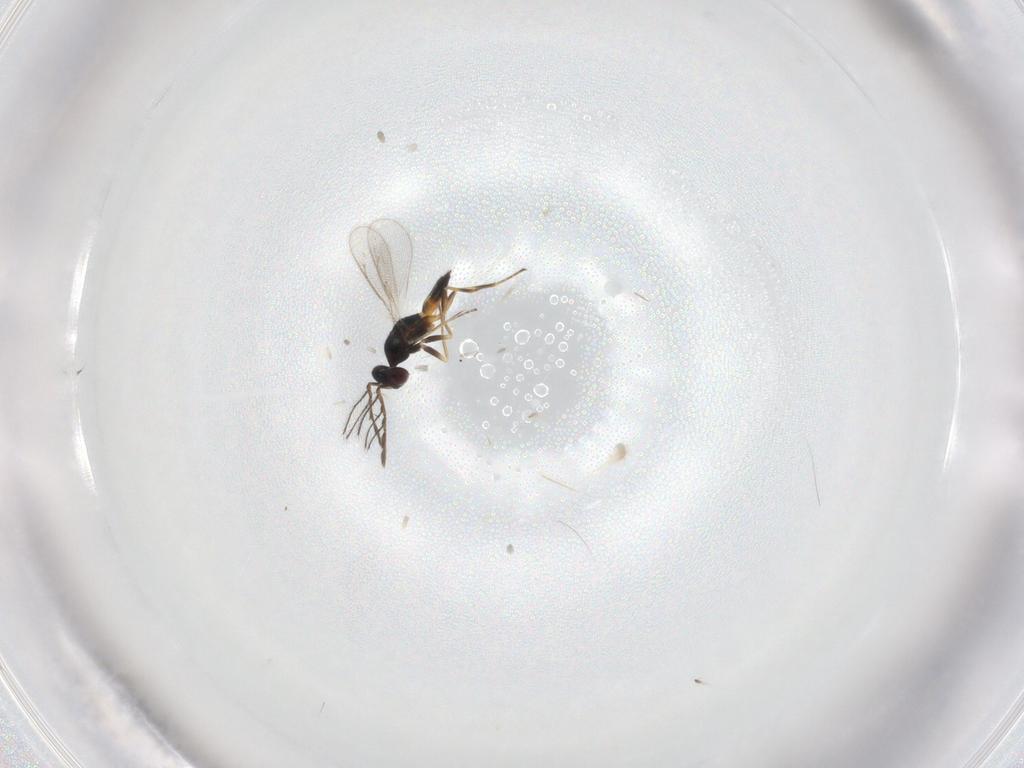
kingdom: Animalia
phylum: Arthropoda
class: Insecta
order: Hymenoptera
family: Eulophidae
